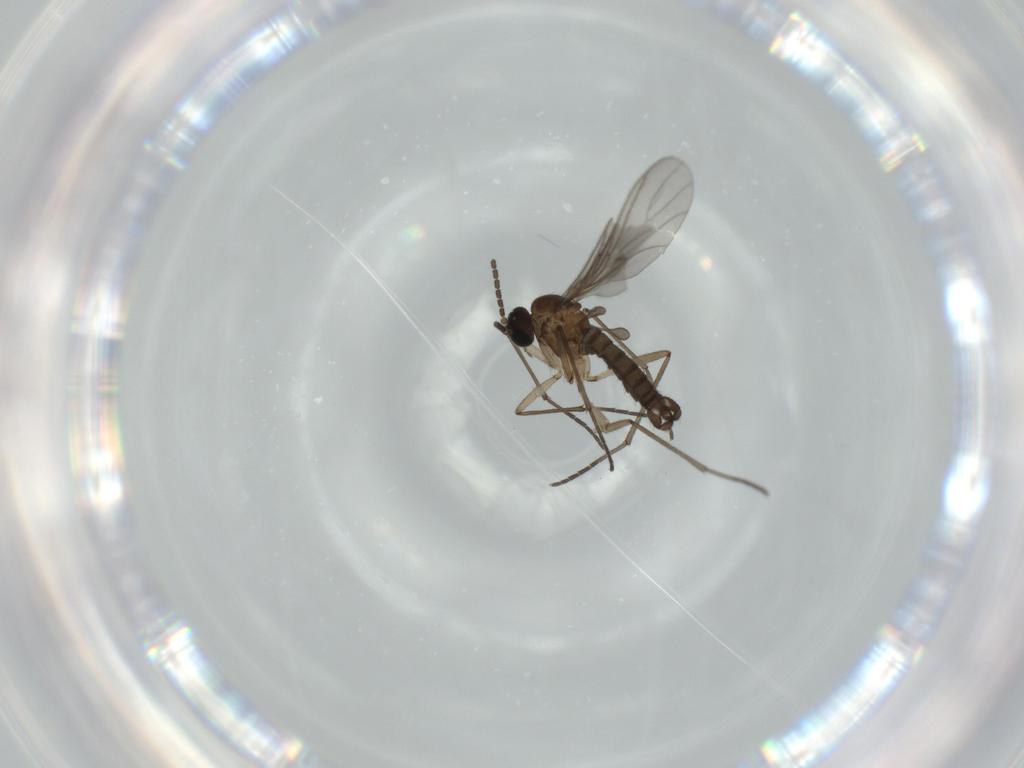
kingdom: Animalia
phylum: Arthropoda
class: Insecta
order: Diptera
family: Sciaridae
